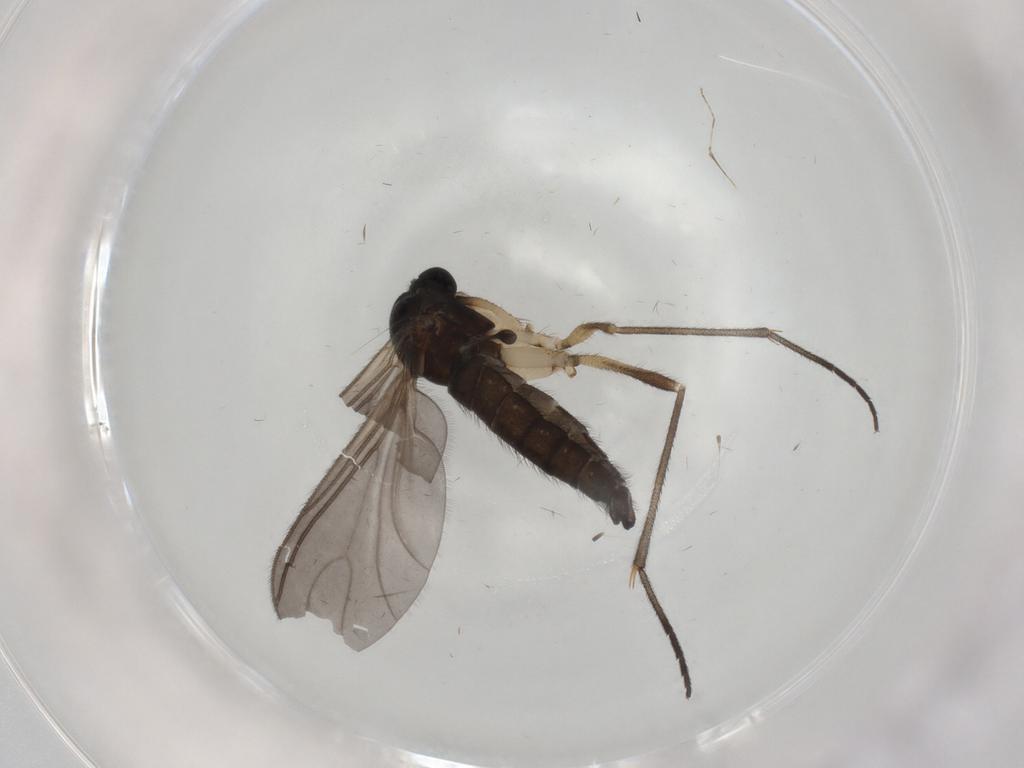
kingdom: Animalia
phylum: Arthropoda
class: Insecta
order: Diptera
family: Sciaridae
